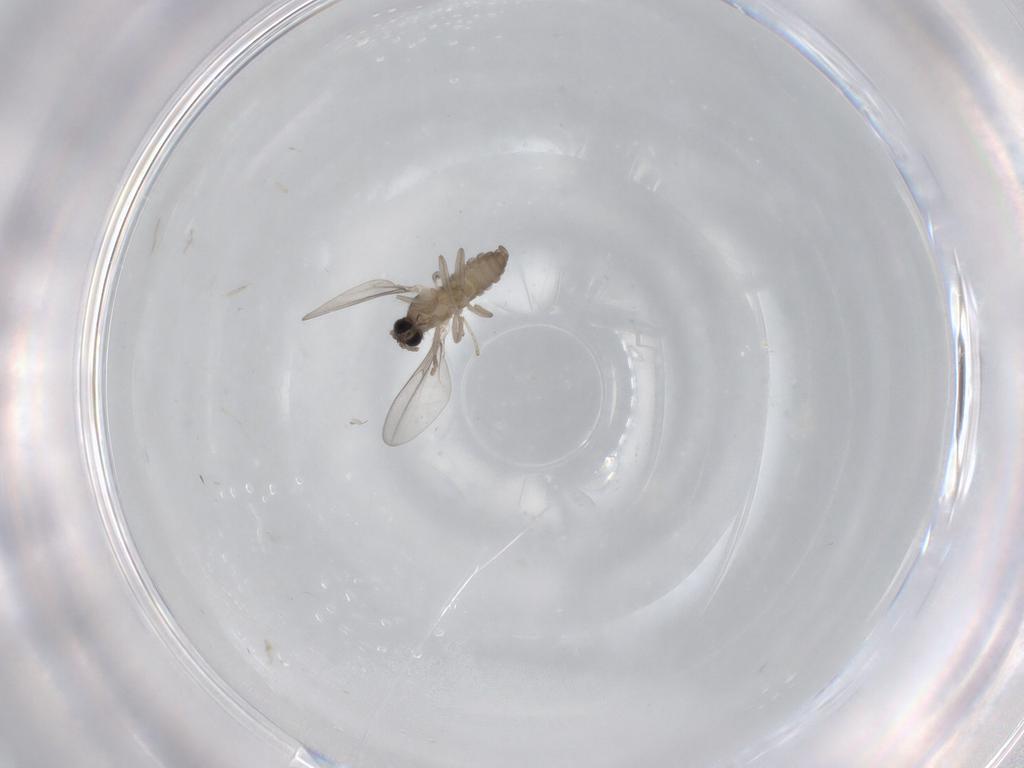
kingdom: Animalia
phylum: Arthropoda
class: Insecta
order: Diptera
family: Cecidomyiidae
